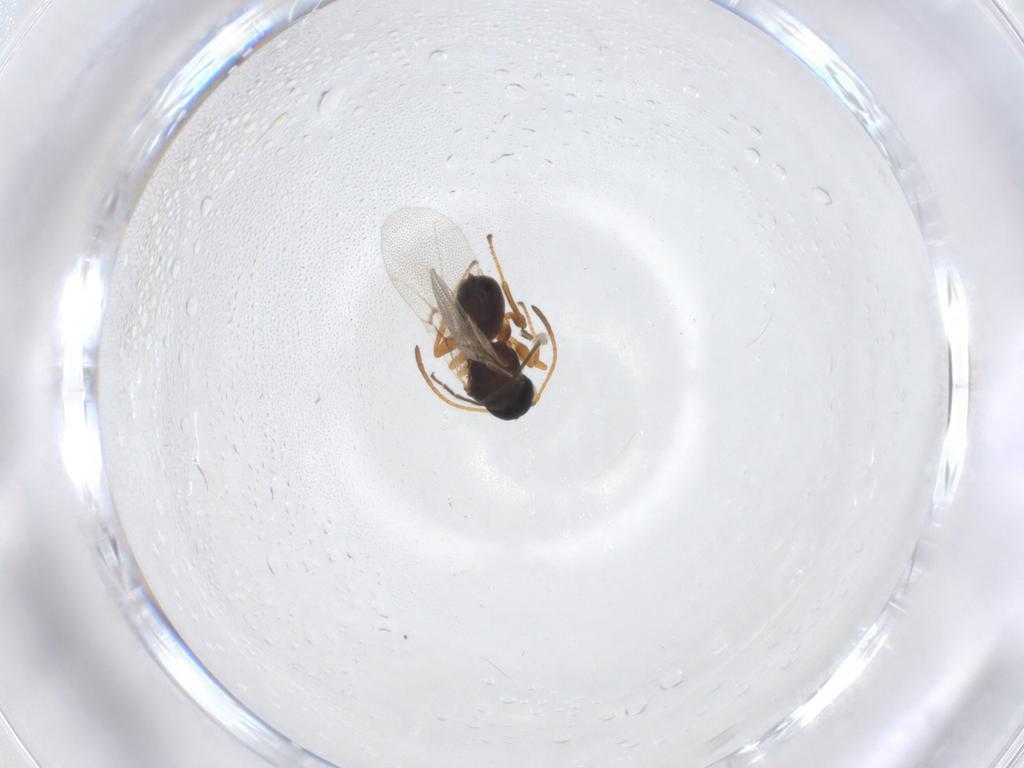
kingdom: Animalia
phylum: Arthropoda
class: Insecta
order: Hymenoptera
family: Cynipidae
